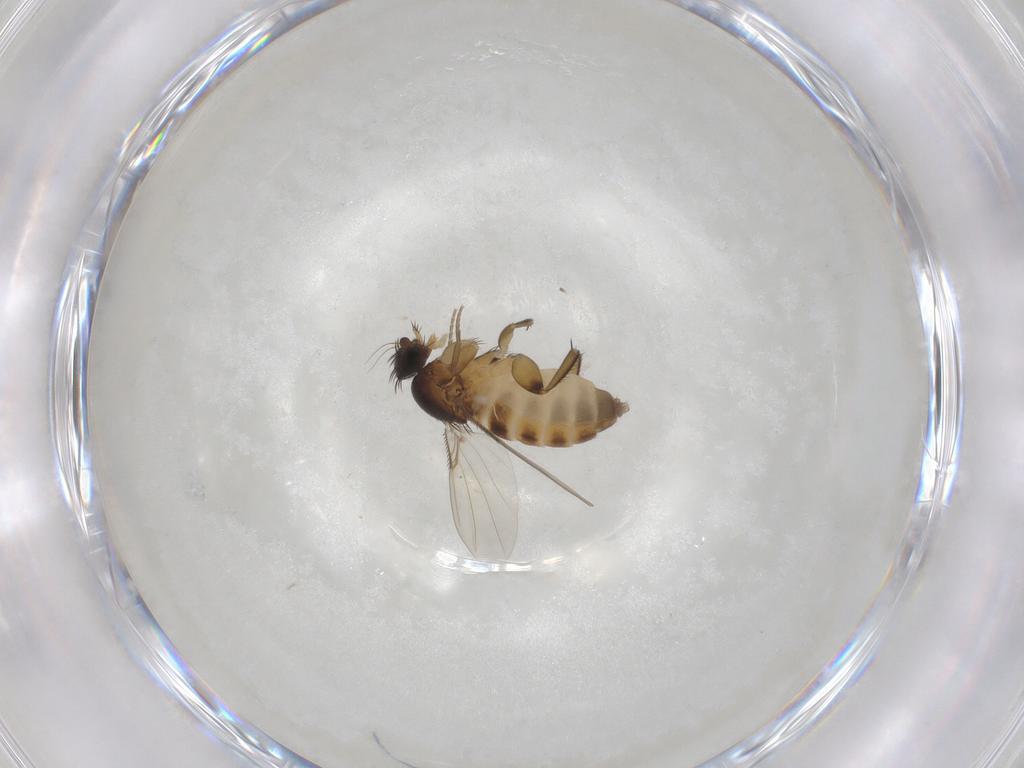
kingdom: Animalia
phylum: Arthropoda
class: Insecta
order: Diptera
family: Phoridae
